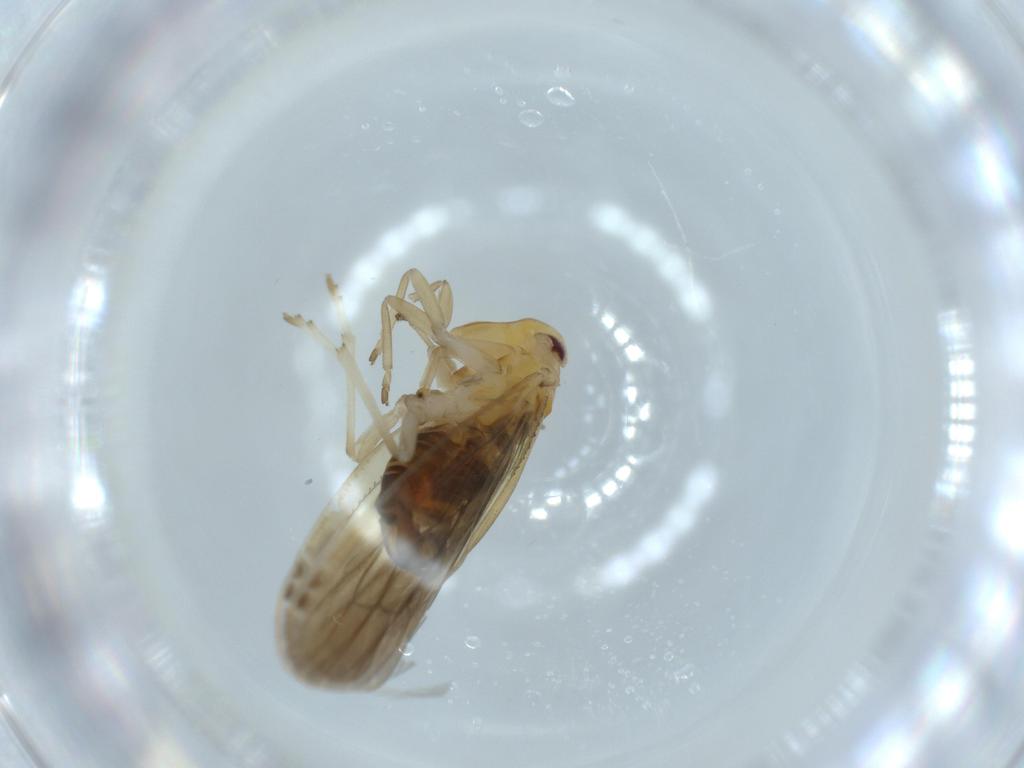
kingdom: Animalia
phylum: Arthropoda
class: Insecta
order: Hemiptera
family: Derbidae
